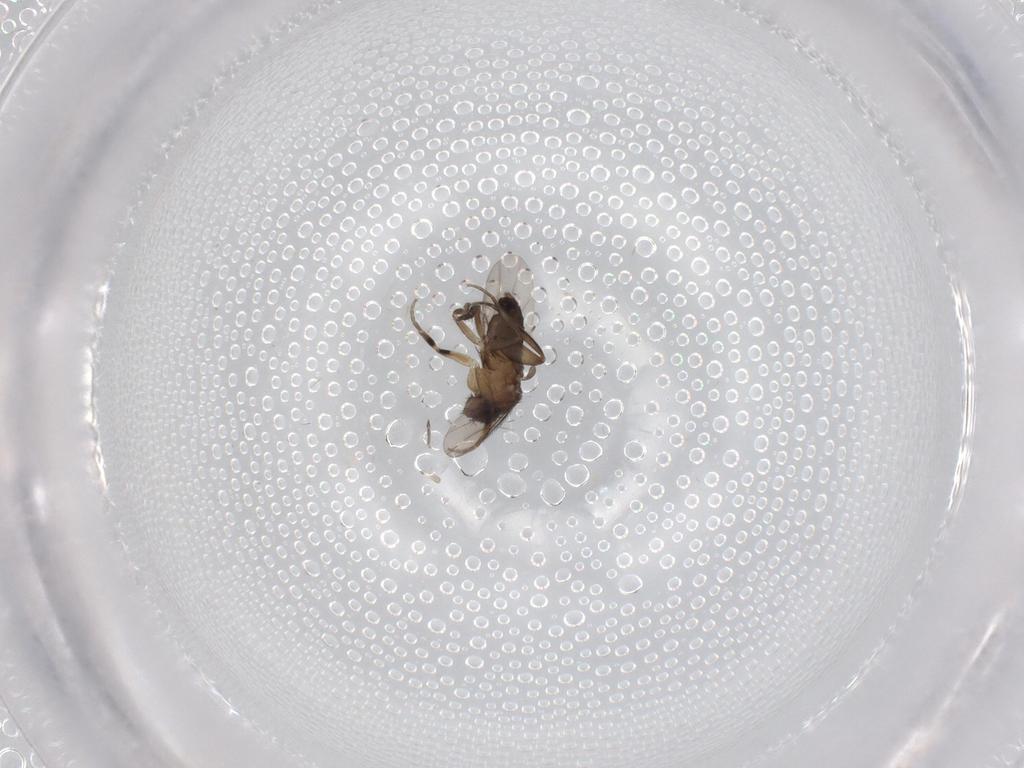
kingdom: Animalia
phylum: Arthropoda
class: Insecta
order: Diptera
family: Phoridae
